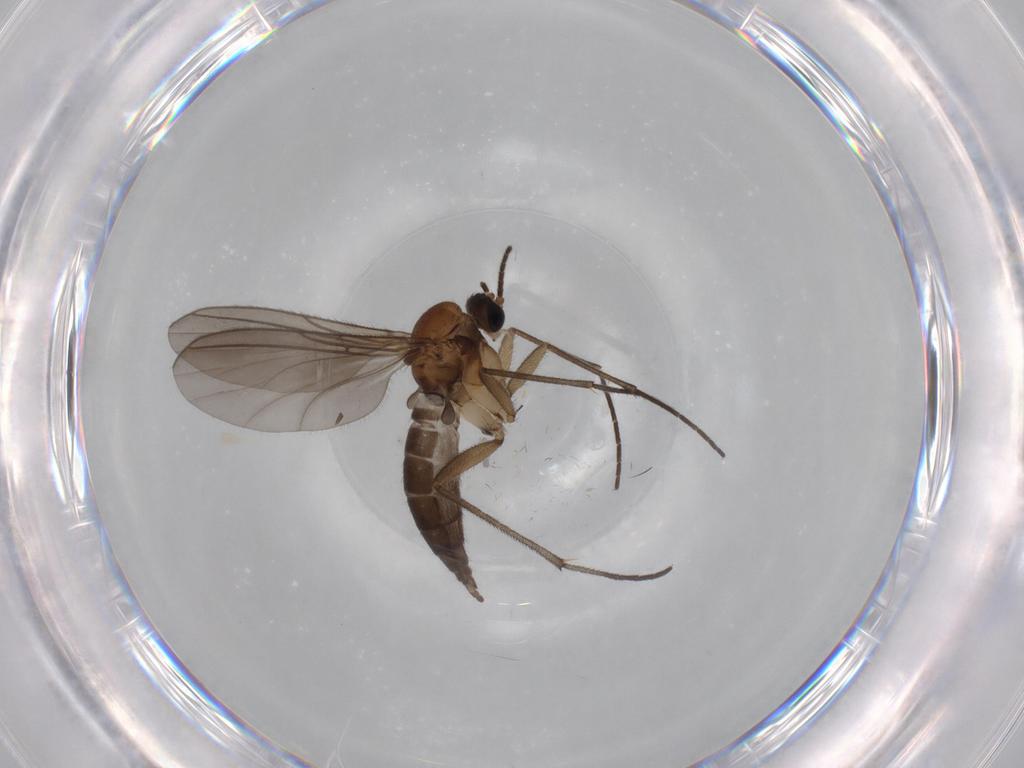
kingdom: Animalia
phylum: Arthropoda
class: Insecta
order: Diptera
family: Sciaridae
